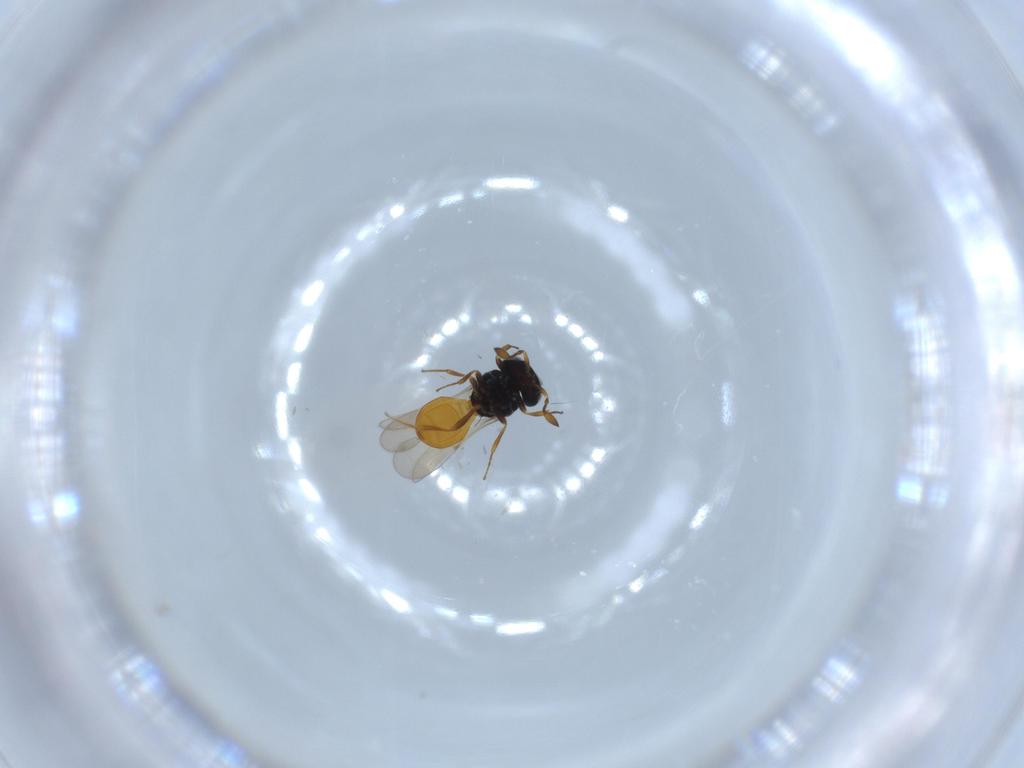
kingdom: Animalia
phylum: Arthropoda
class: Insecta
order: Hymenoptera
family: Scelionidae
